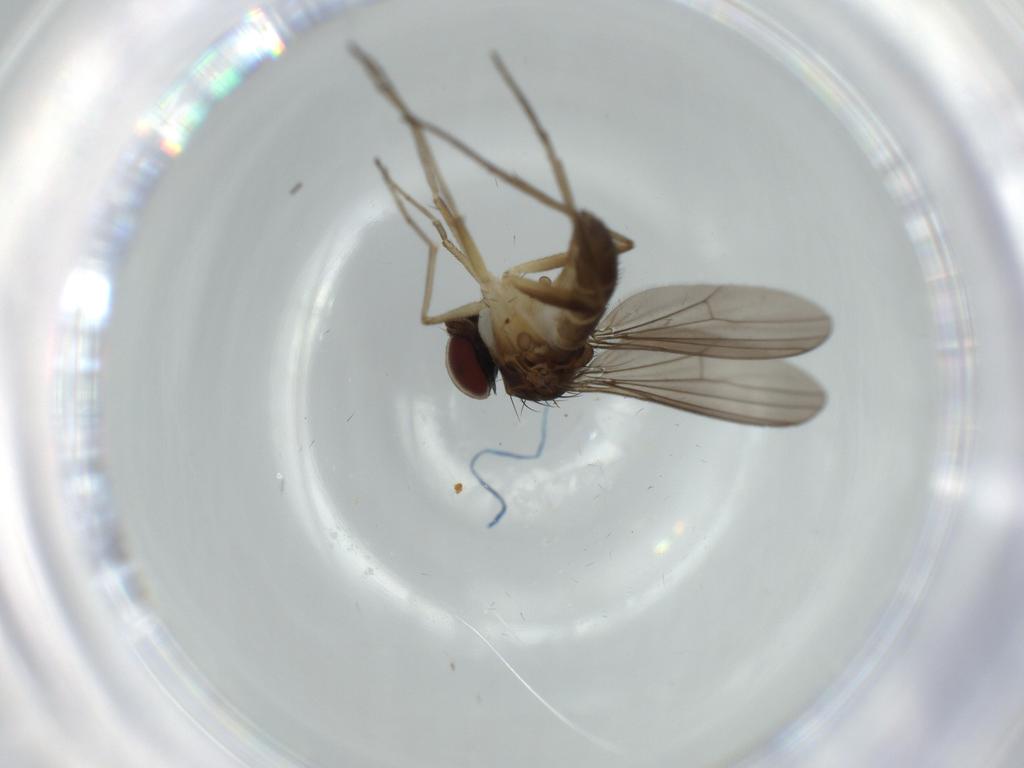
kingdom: Animalia
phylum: Arthropoda
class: Insecta
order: Diptera
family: Dolichopodidae
